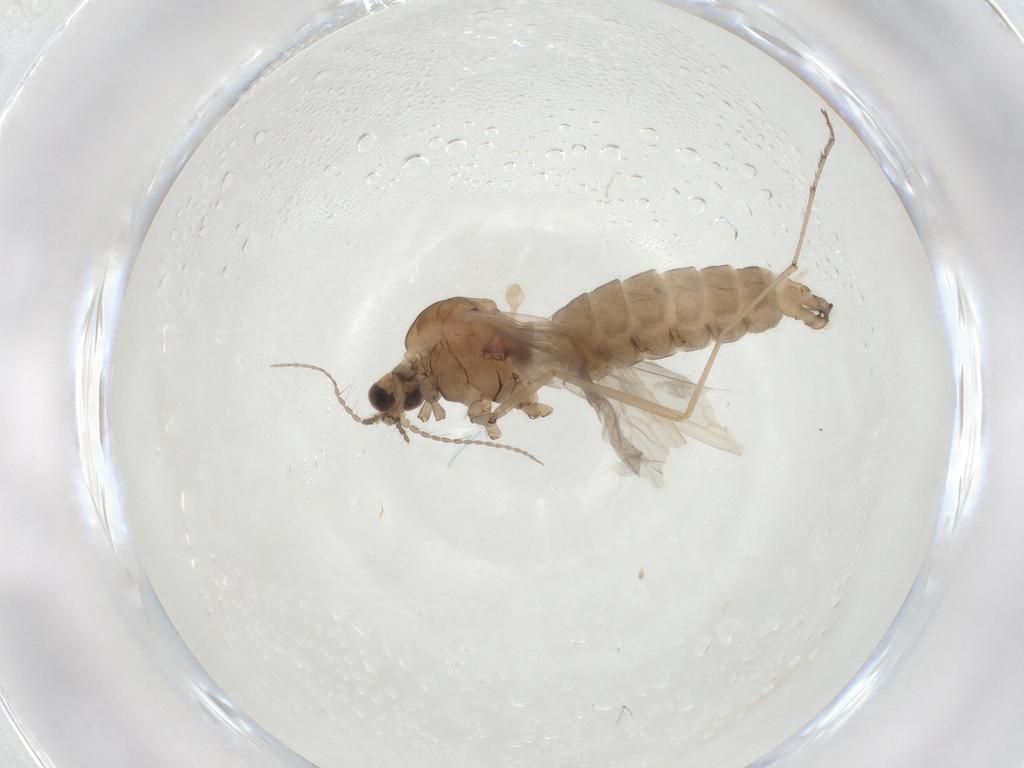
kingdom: Animalia
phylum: Arthropoda
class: Insecta
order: Diptera
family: Limoniidae
